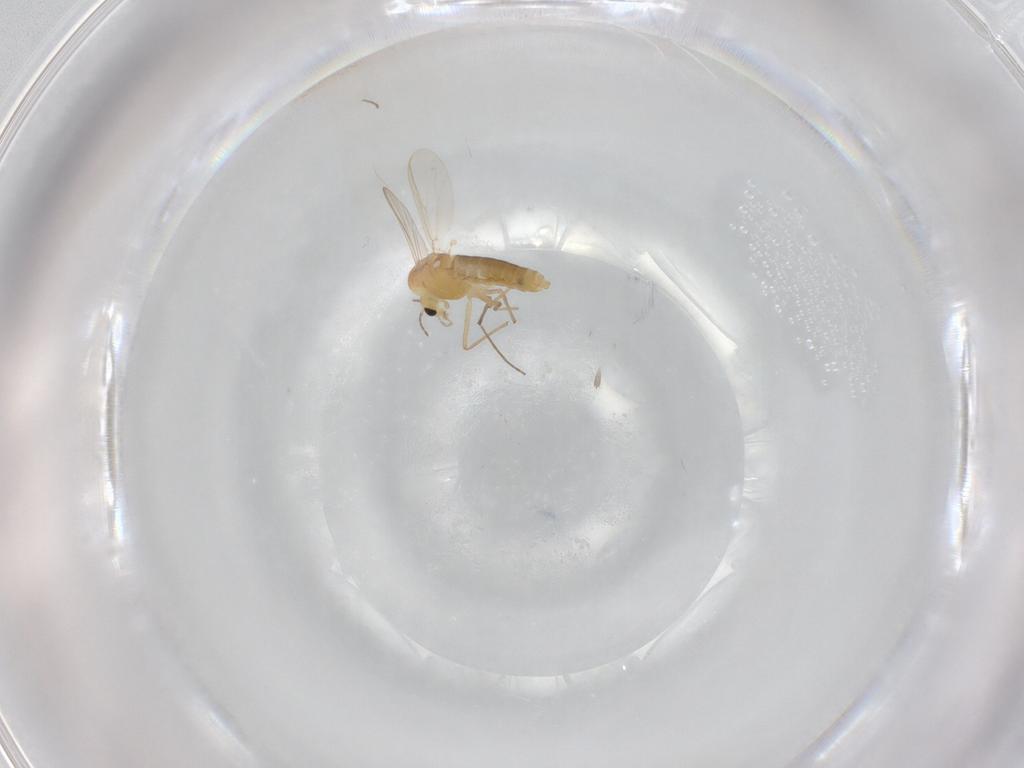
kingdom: Animalia
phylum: Arthropoda
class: Insecta
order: Diptera
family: Chironomidae
